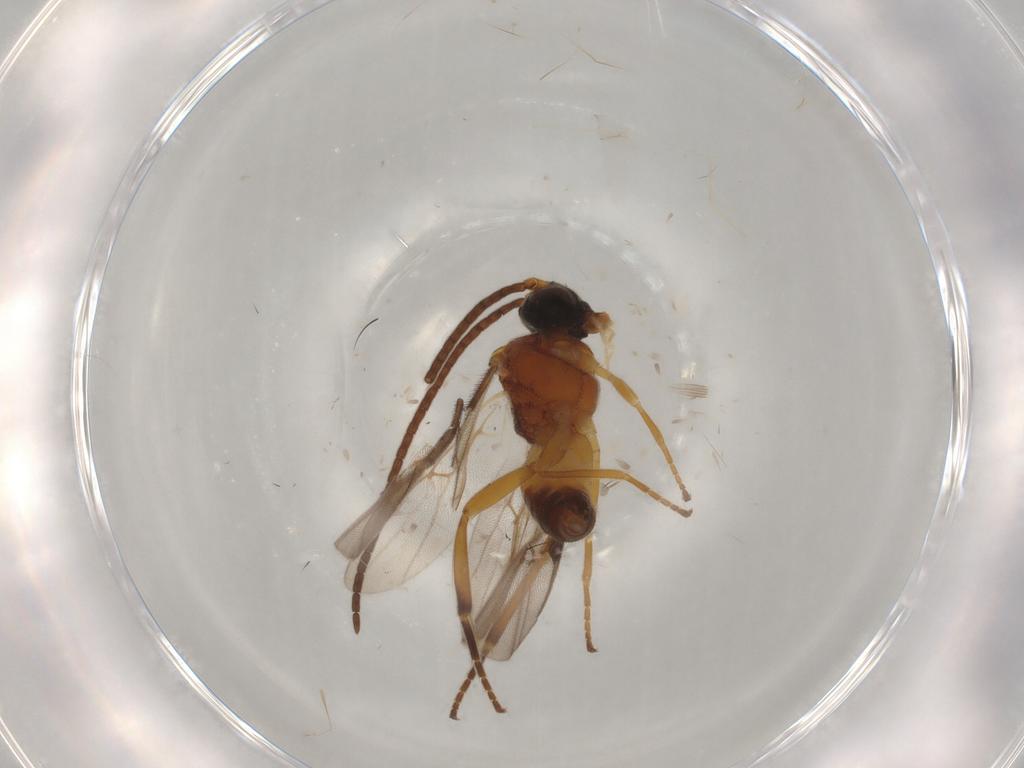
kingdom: Animalia
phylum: Arthropoda
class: Insecta
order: Hymenoptera
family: Braconidae
